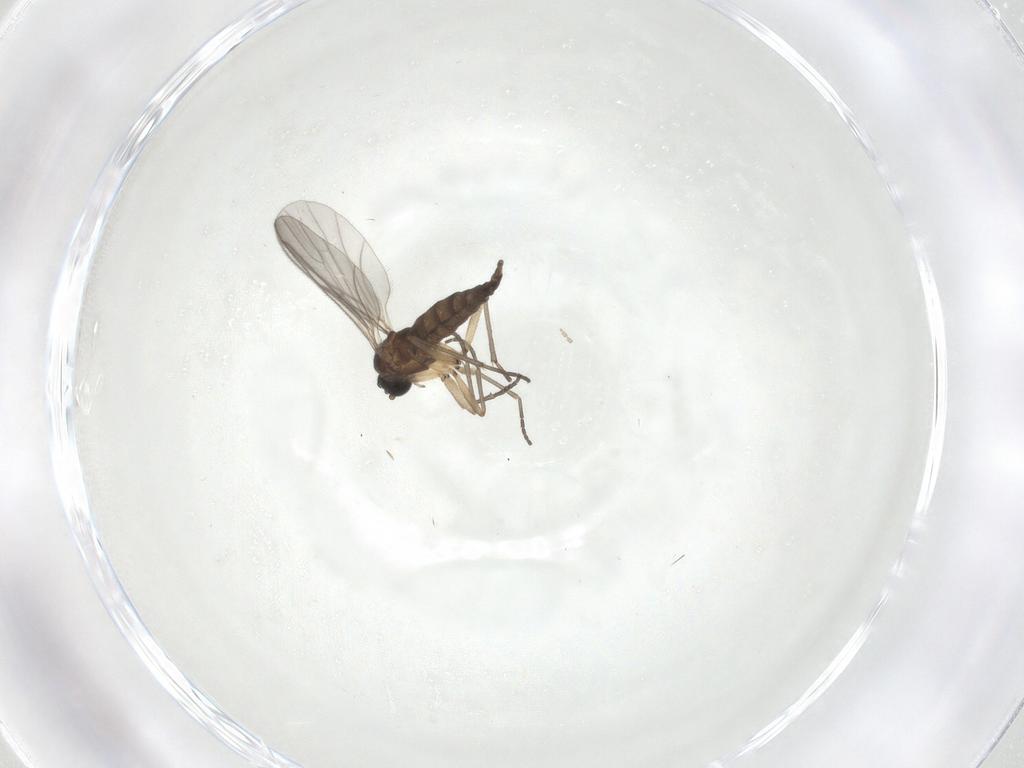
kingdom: Animalia
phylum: Arthropoda
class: Insecta
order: Diptera
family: Sciaridae
